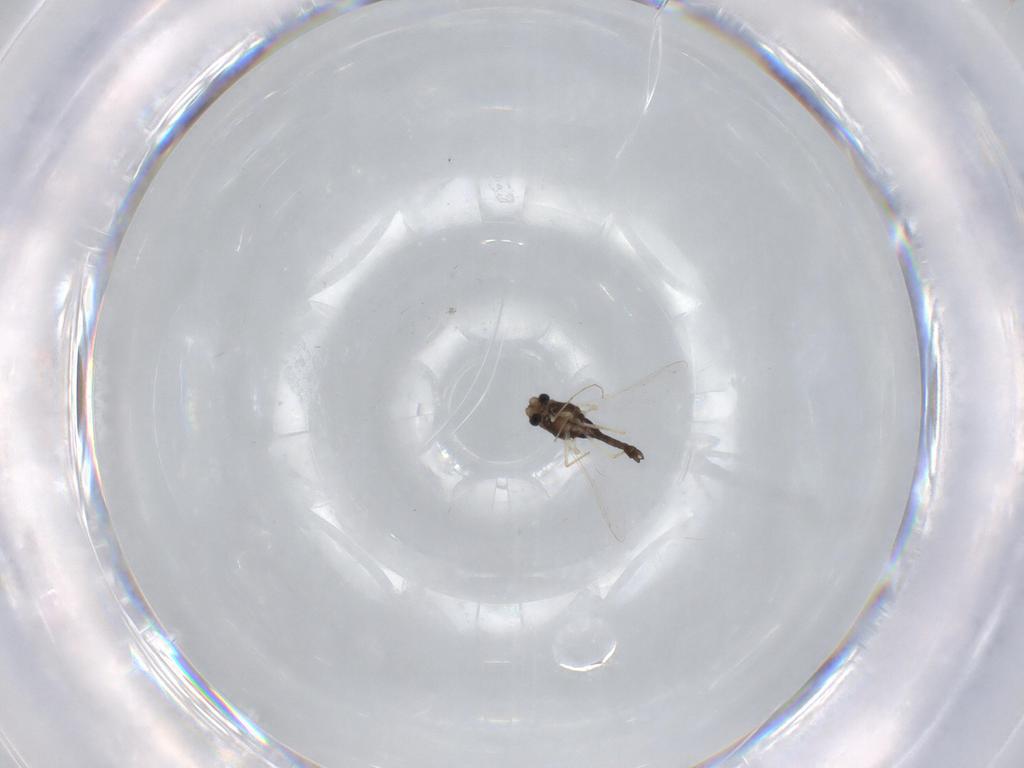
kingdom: Animalia
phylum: Arthropoda
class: Insecta
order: Diptera
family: Chironomidae
